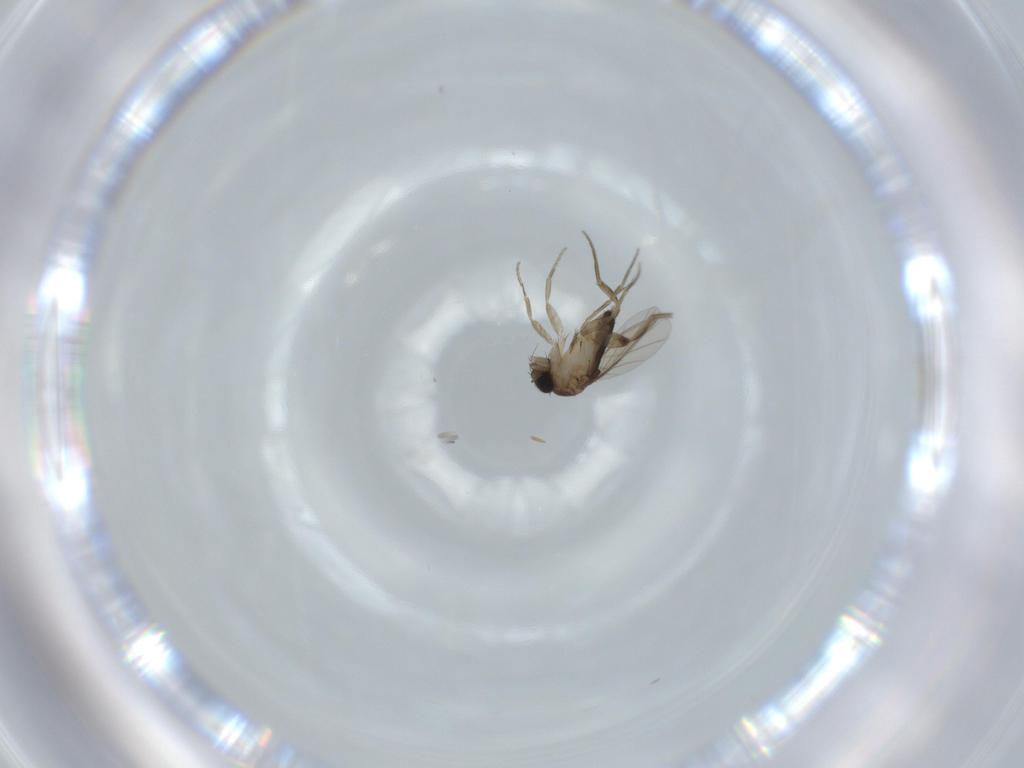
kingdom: Animalia
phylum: Arthropoda
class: Insecta
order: Diptera
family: Phoridae
